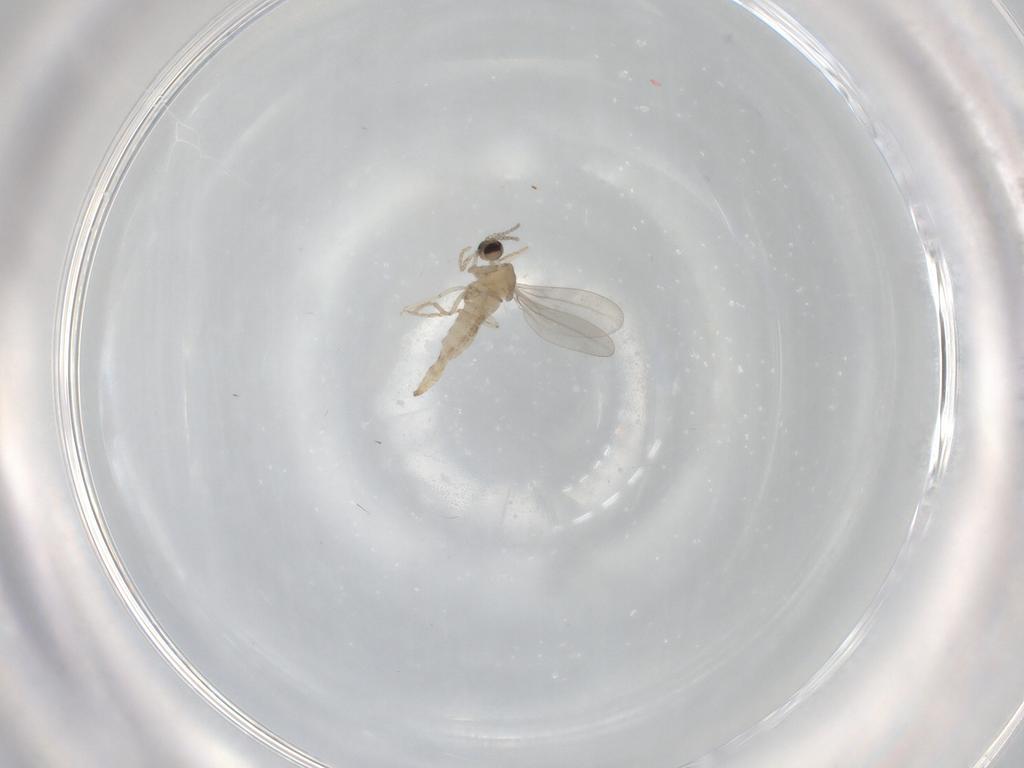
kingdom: Animalia
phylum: Arthropoda
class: Insecta
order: Diptera
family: Cecidomyiidae
